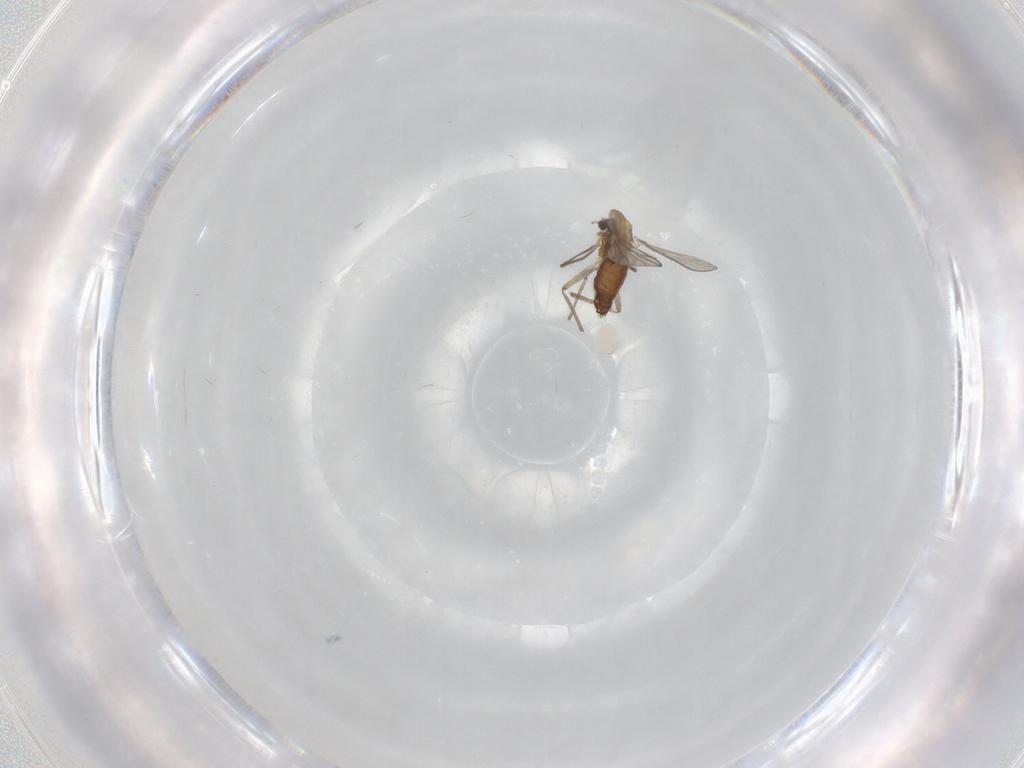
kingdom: Animalia
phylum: Arthropoda
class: Insecta
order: Diptera
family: Limoniidae
